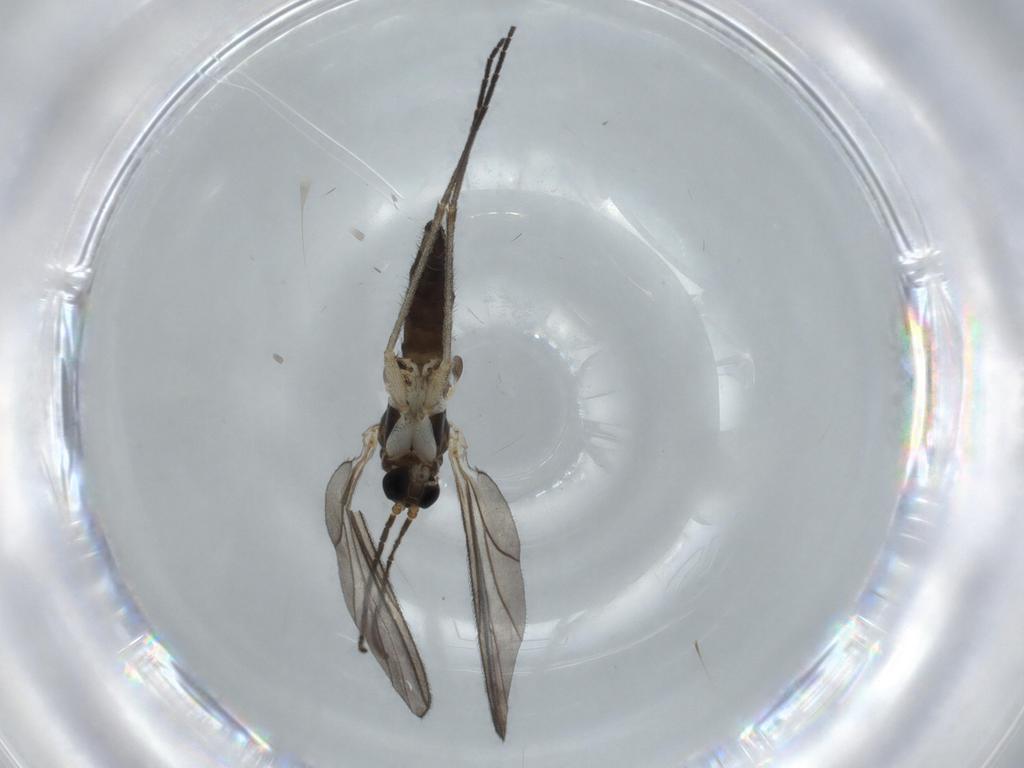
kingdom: Animalia
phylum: Arthropoda
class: Insecta
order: Diptera
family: Sciaridae
